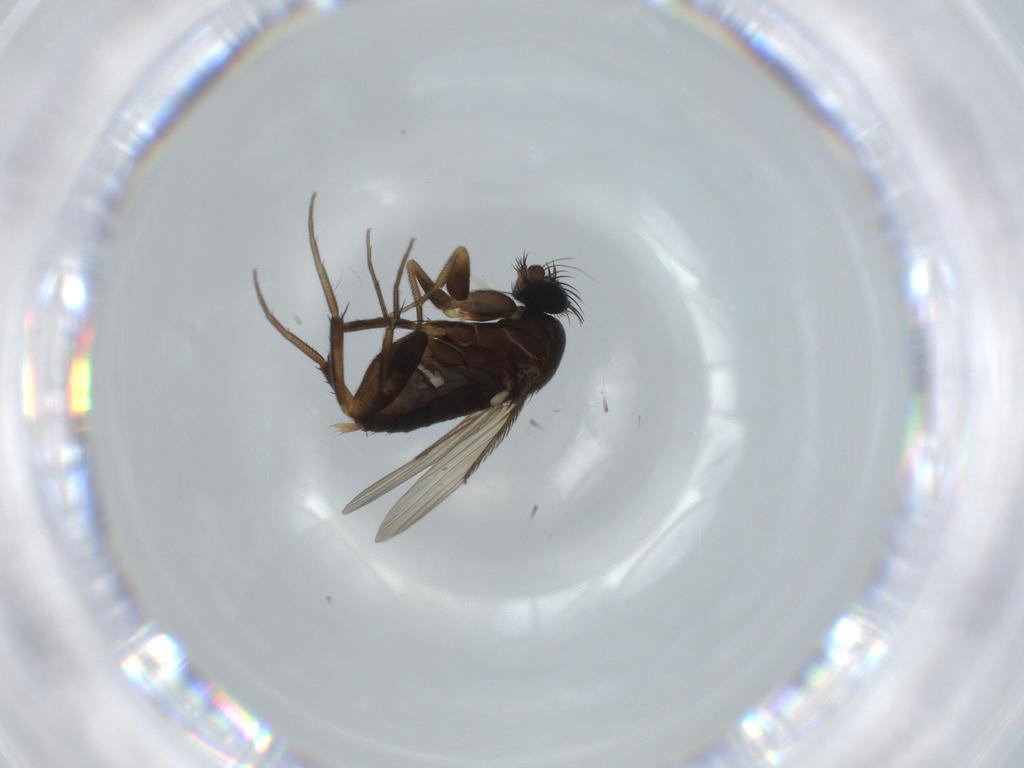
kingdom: Animalia
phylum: Arthropoda
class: Insecta
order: Diptera
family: Phoridae
